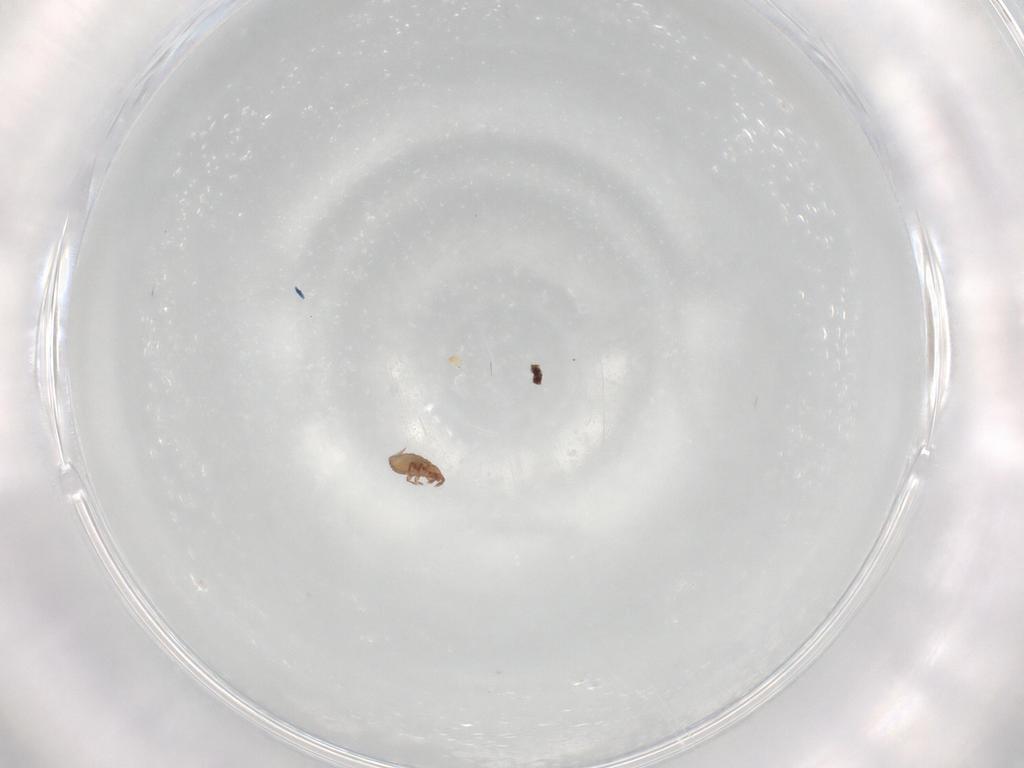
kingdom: Animalia
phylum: Arthropoda
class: Arachnida
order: Sarcoptiformes
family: Eremaeidae
